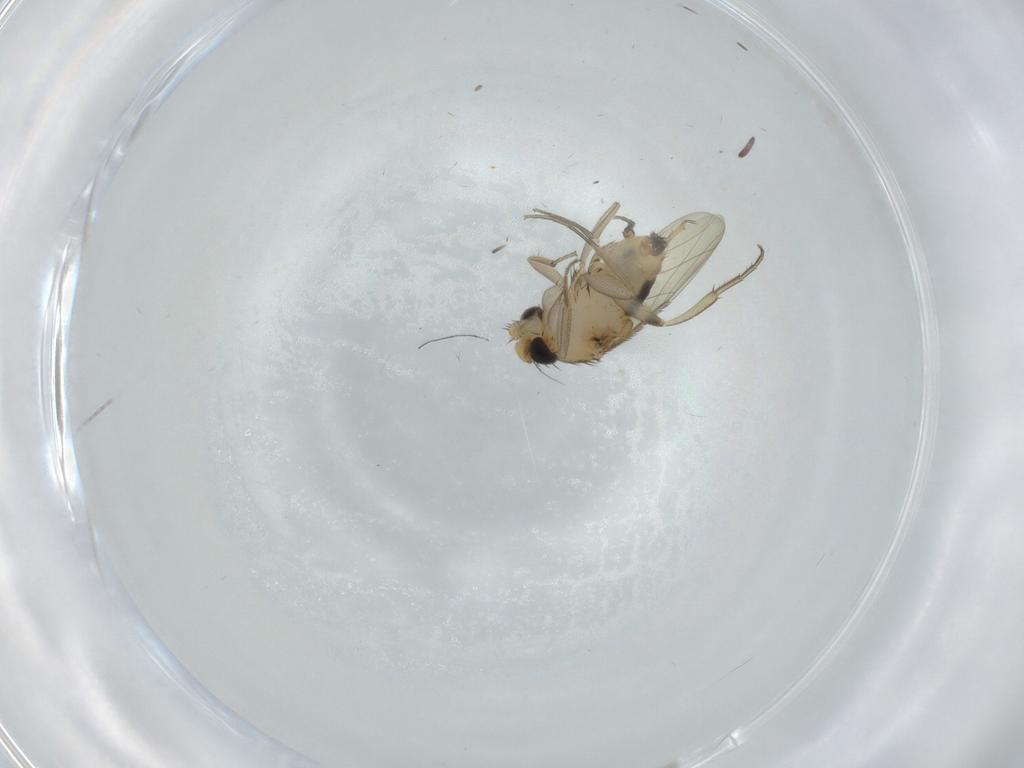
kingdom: Animalia
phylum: Arthropoda
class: Insecta
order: Diptera
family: Phoridae
